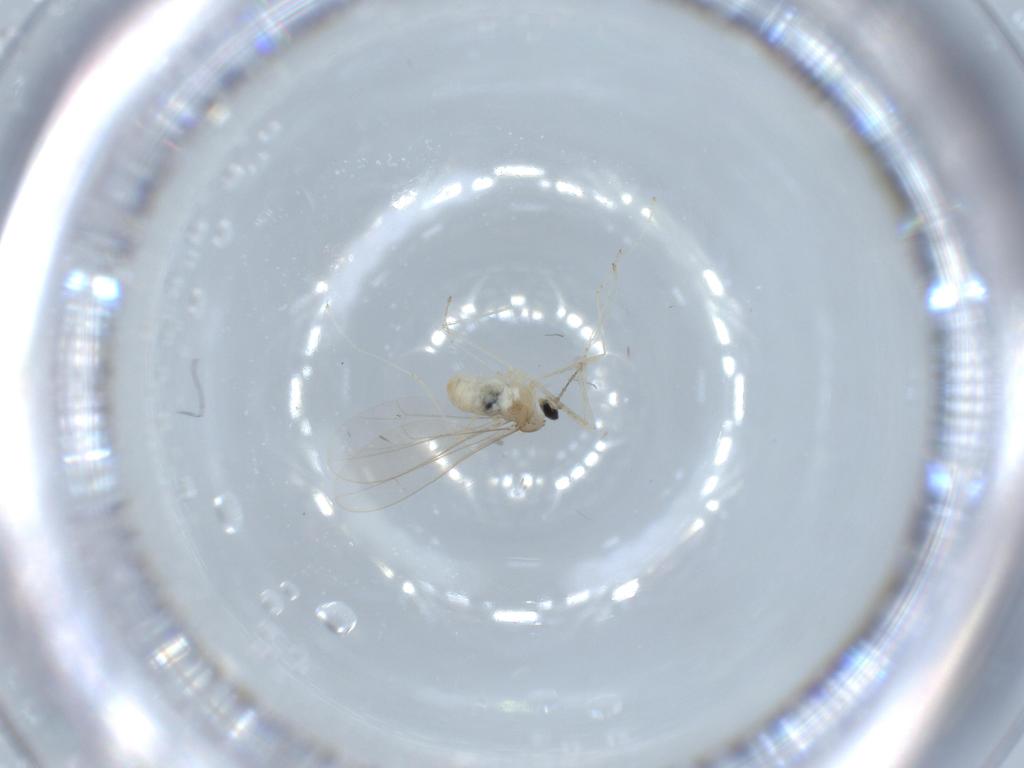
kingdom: Animalia
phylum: Arthropoda
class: Insecta
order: Diptera
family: Cecidomyiidae
